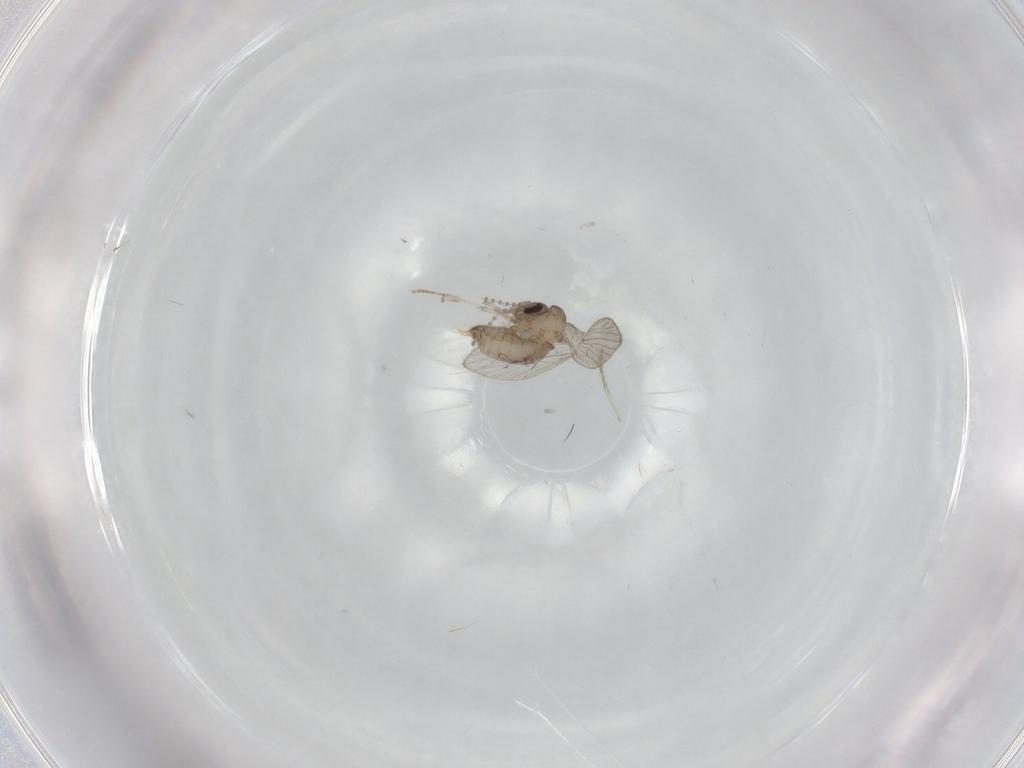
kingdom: Animalia
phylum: Arthropoda
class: Insecta
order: Diptera
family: Psychodidae
